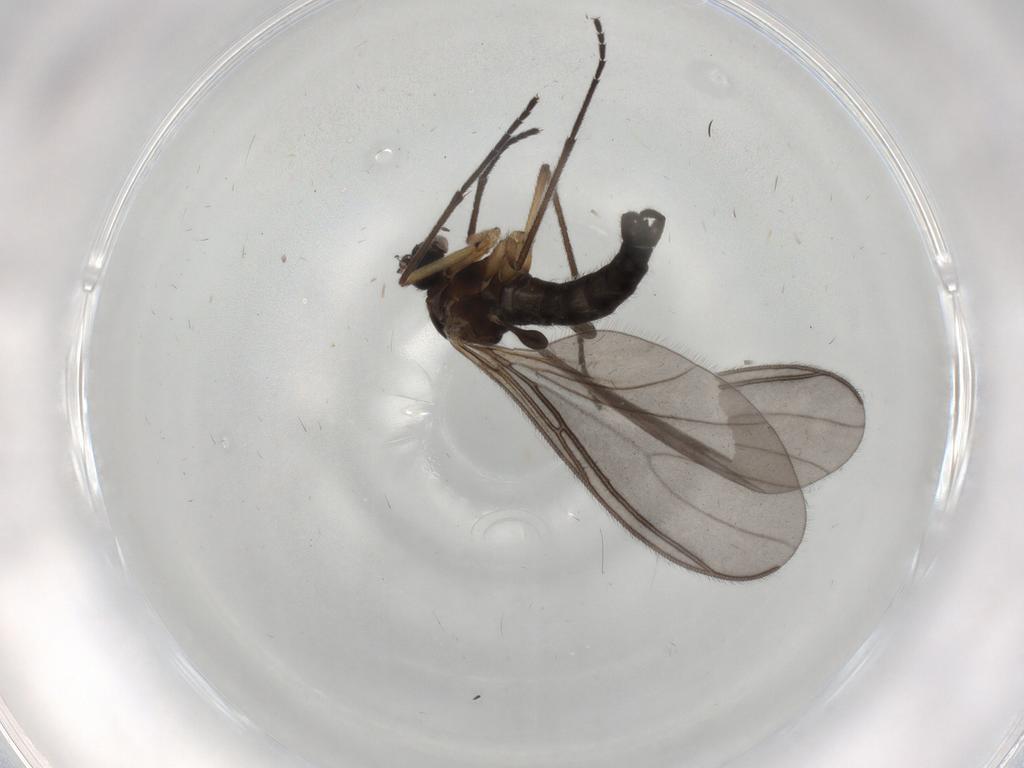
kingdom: Animalia
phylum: Arthropoda
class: Insecta
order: Diptera
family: Sciaridae
